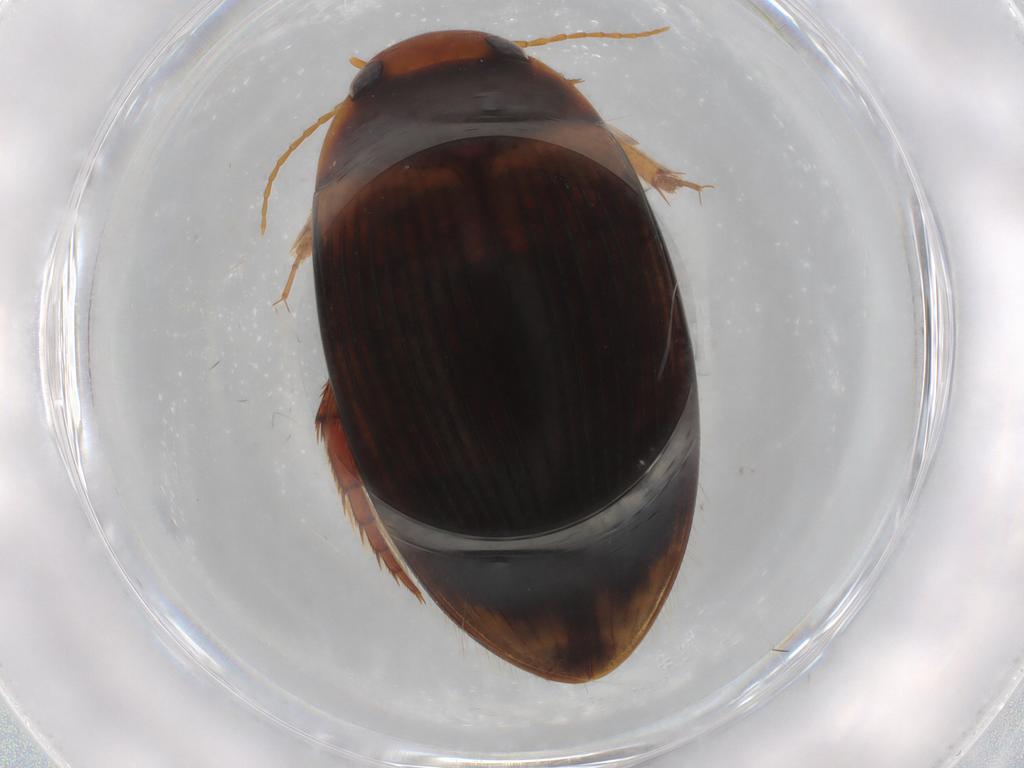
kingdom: Animalia
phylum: Arthropoda
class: Insecta
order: Coleoptera
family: Dytiscidae
